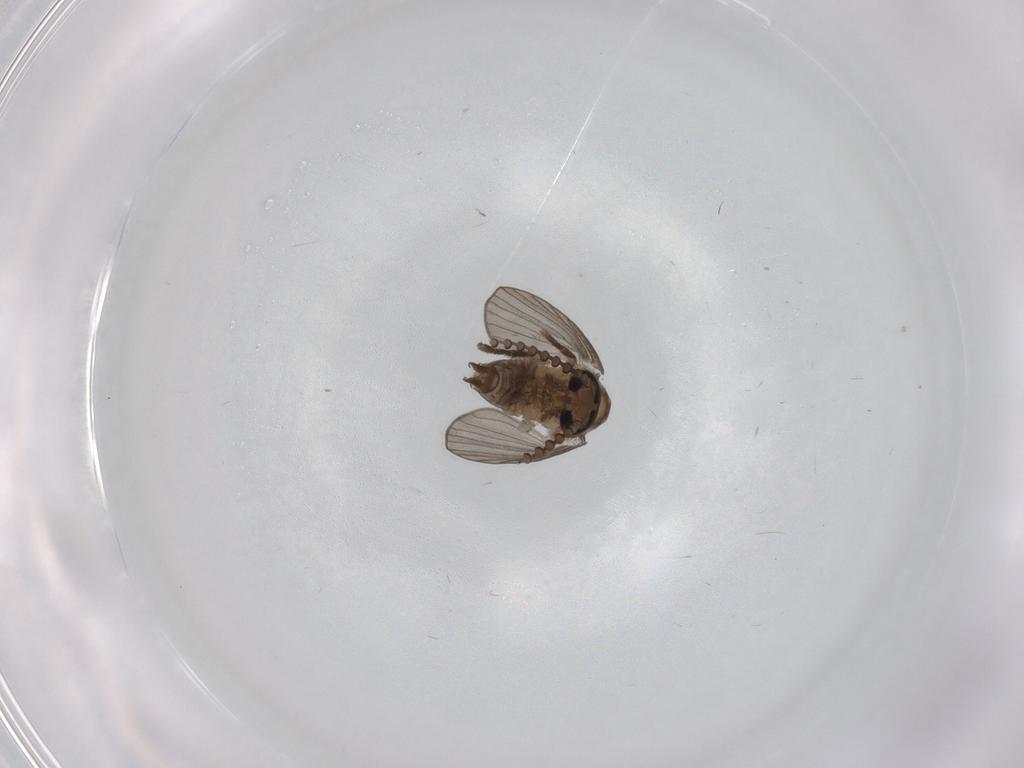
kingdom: Animalia
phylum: Arthropoda
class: Insecta
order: Diptera
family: Psychodidae
